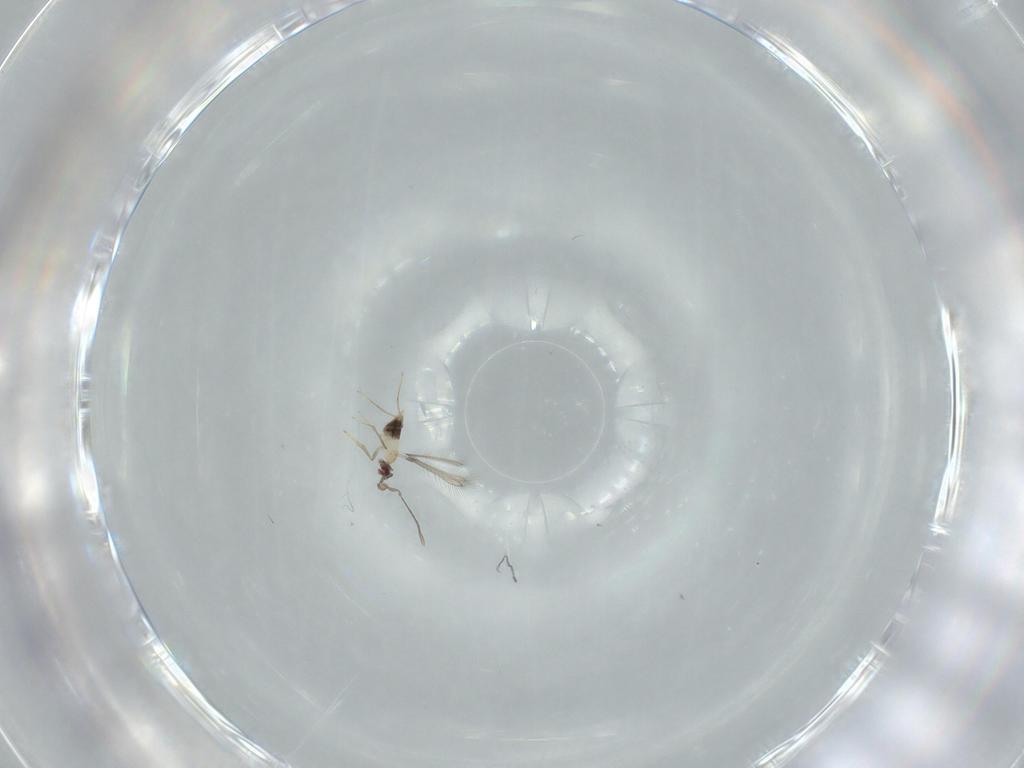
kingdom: Animalia
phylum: Arthropoda
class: Insecta
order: Hymenoptera
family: Mymaridae
